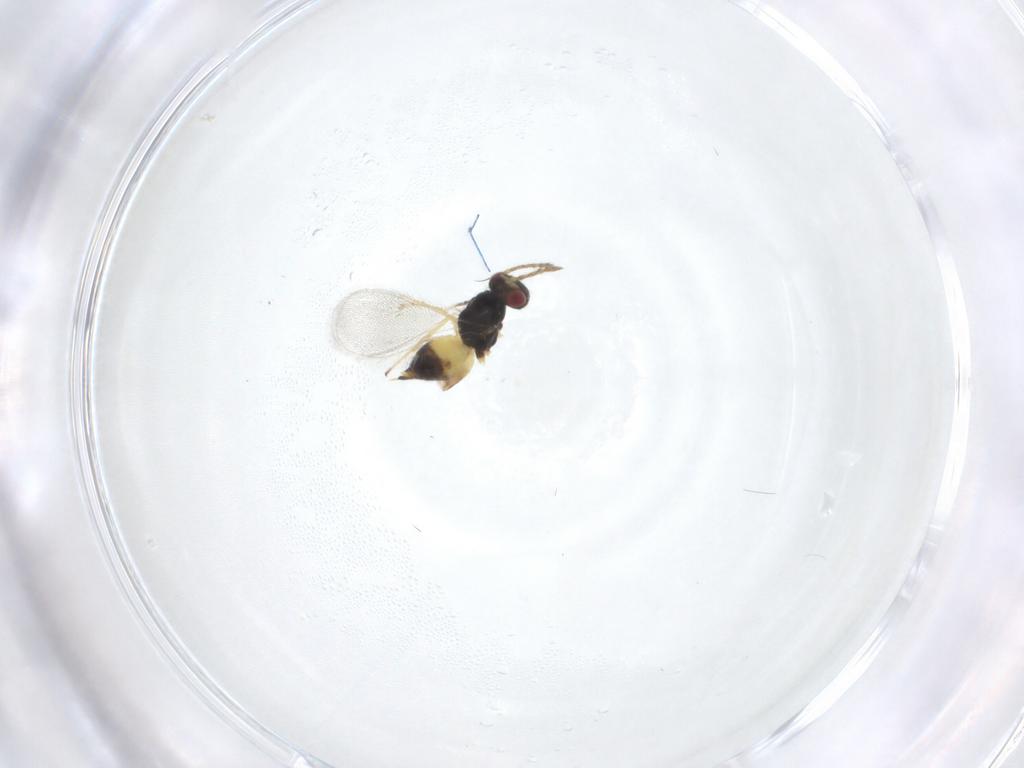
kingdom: Animalia
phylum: Arthropoda
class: Insecta
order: Hymenoptera
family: Eulophidae
